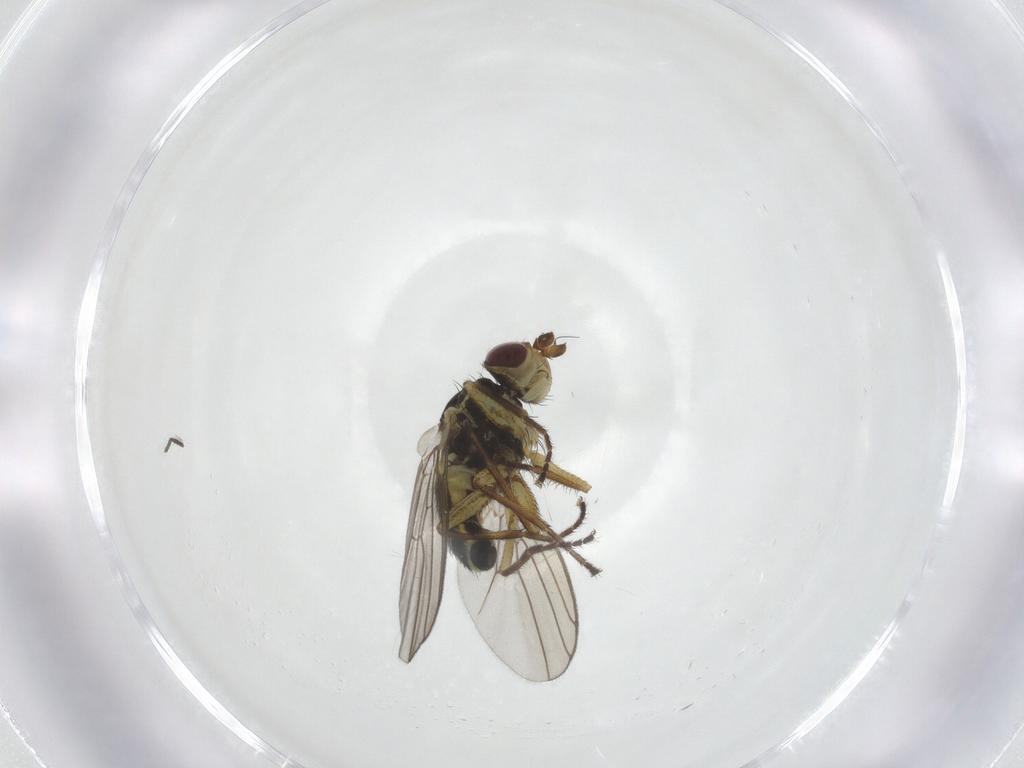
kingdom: Animalia
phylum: Arthropoda
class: Insecta
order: Diptera
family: Agromyzidae
